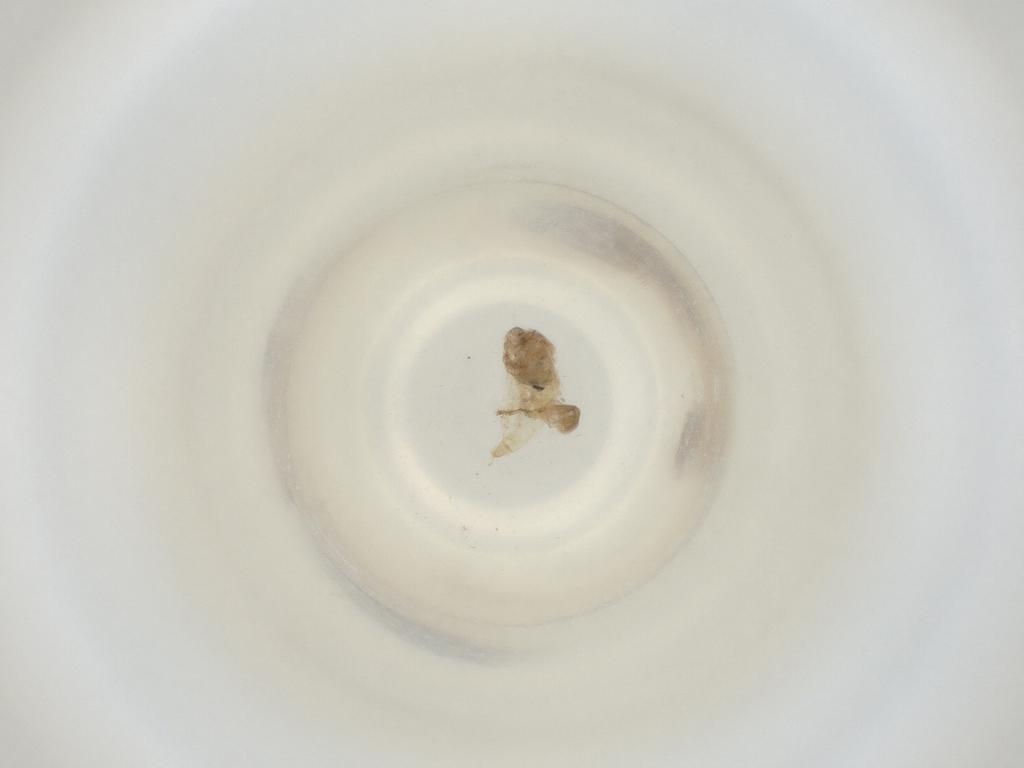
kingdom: Animalia
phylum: Arthropoda
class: Insecta
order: Diptera
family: Cecidomyiidae
